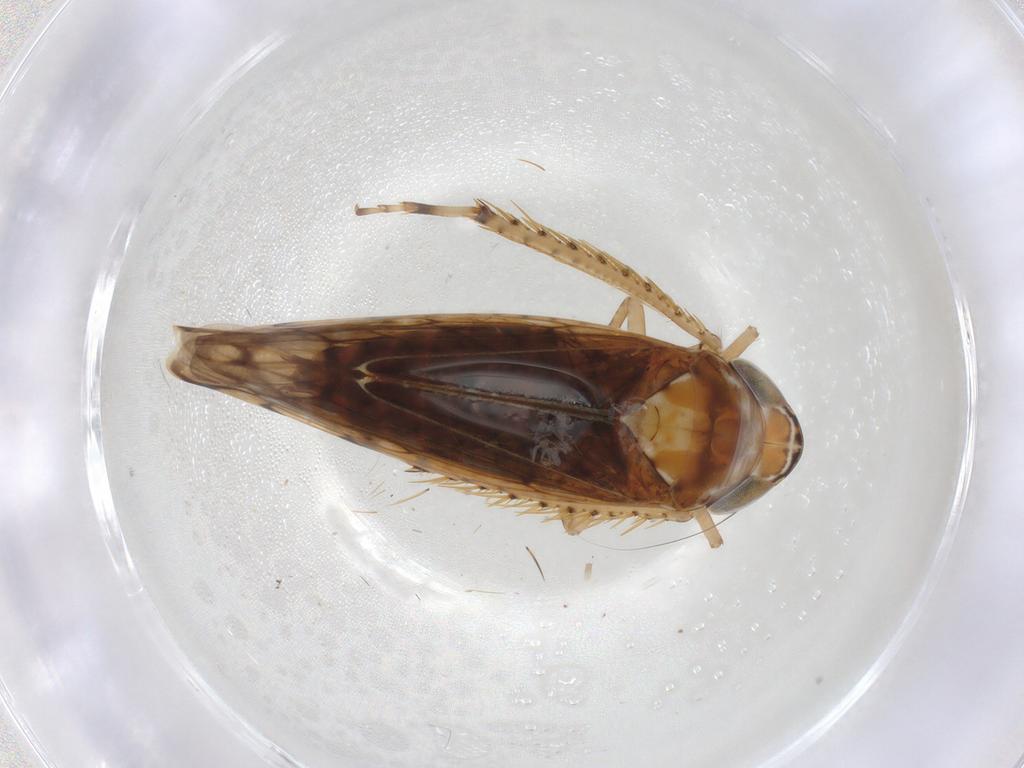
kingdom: Animalia
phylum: Arthropoda
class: Insecta
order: Hemiptera
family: Cicadellidae
